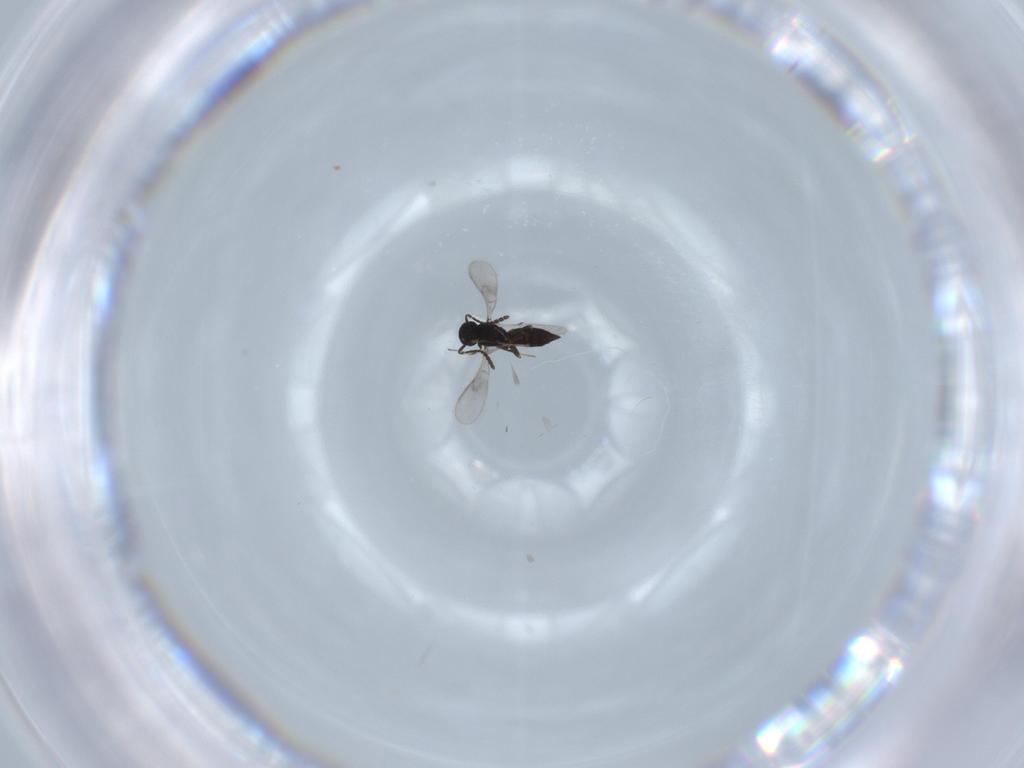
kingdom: Animalia
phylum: Arthropoda
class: Insecta
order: Hymenoptera
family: Scelionidae
